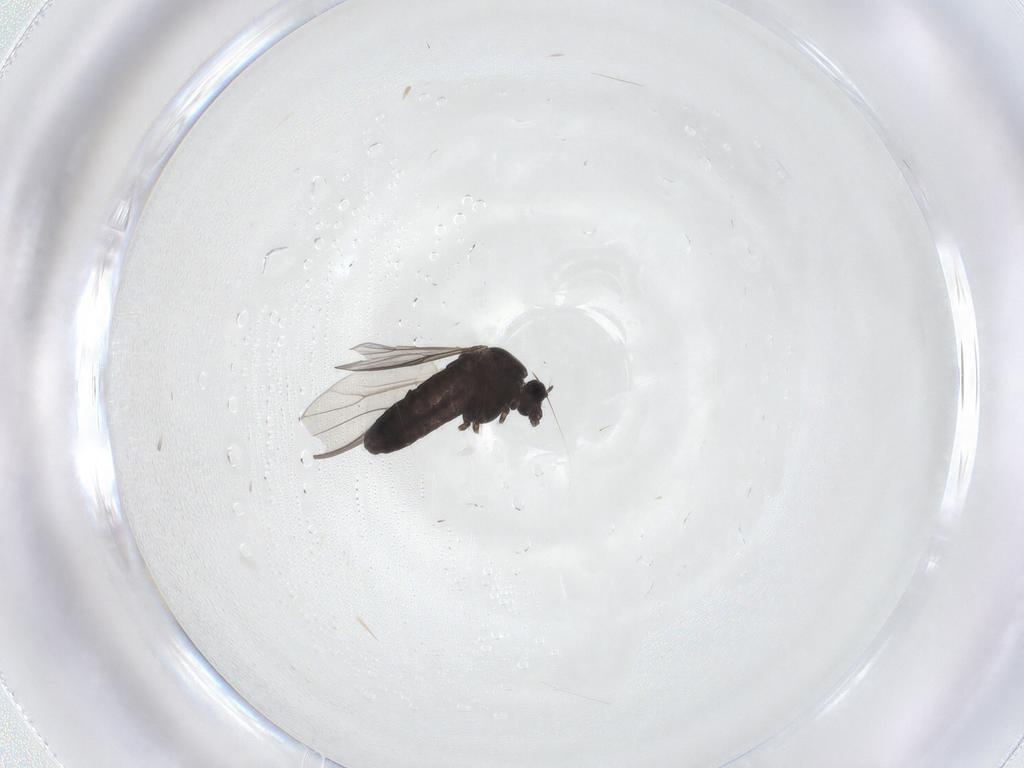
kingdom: Animalia
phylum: Arthropoda
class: Insecta
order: Diptera
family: Chironomidae
